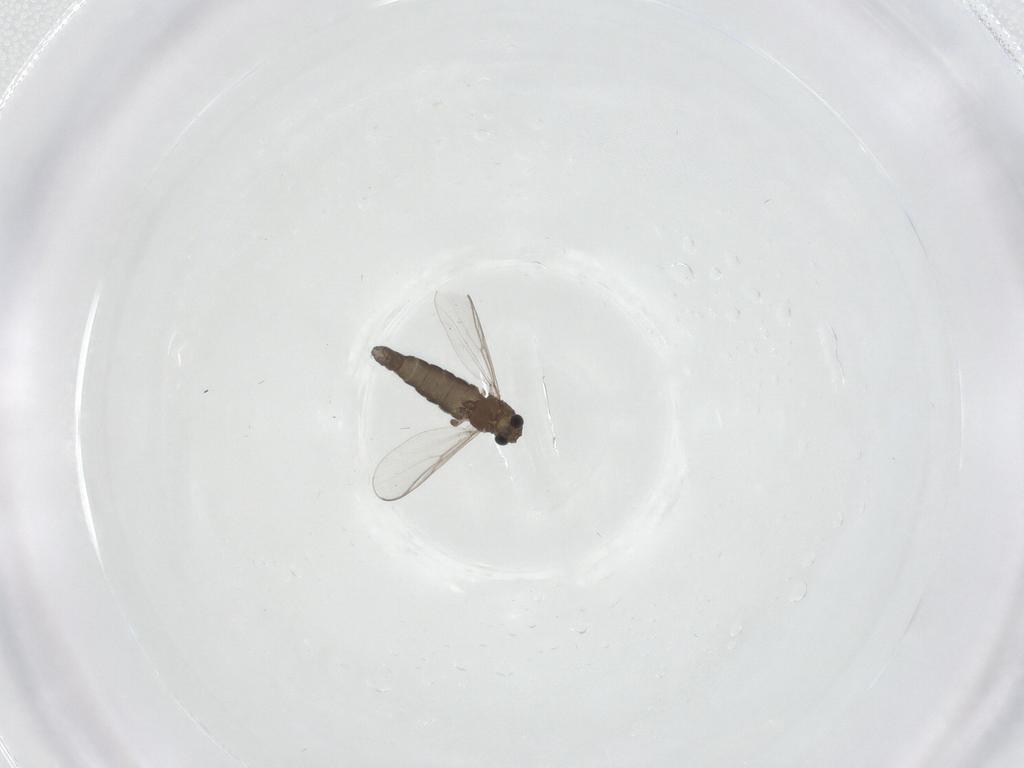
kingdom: Animalia
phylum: Arthropoda
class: Insecta
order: Diptera
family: Chironomidae
